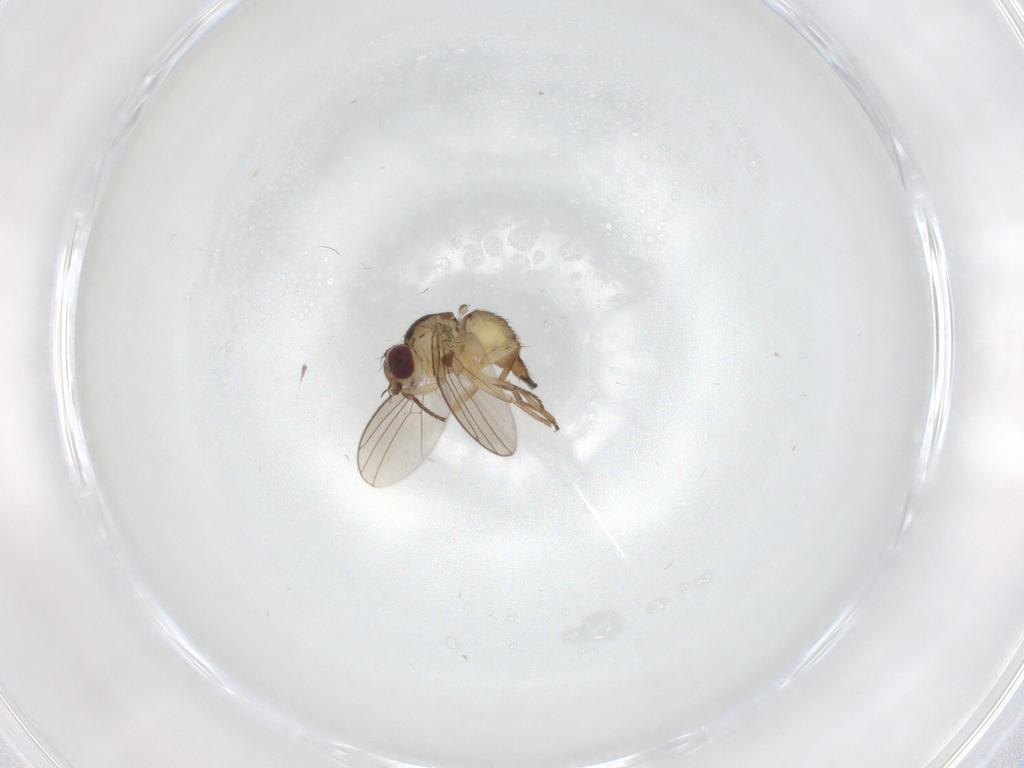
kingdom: Animalia
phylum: Arthropoda
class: Insecta
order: Diptera
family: Agromyzidae
